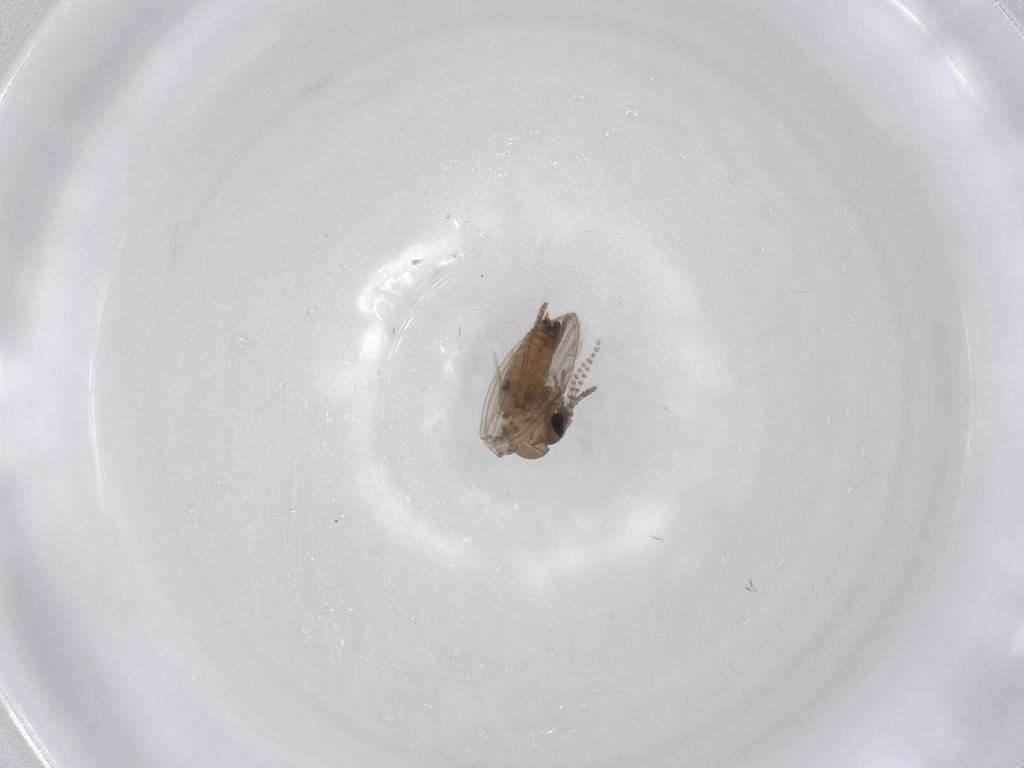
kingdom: Animalia
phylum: Arthropoda
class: Insecta
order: Diptera
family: Psychodidae
